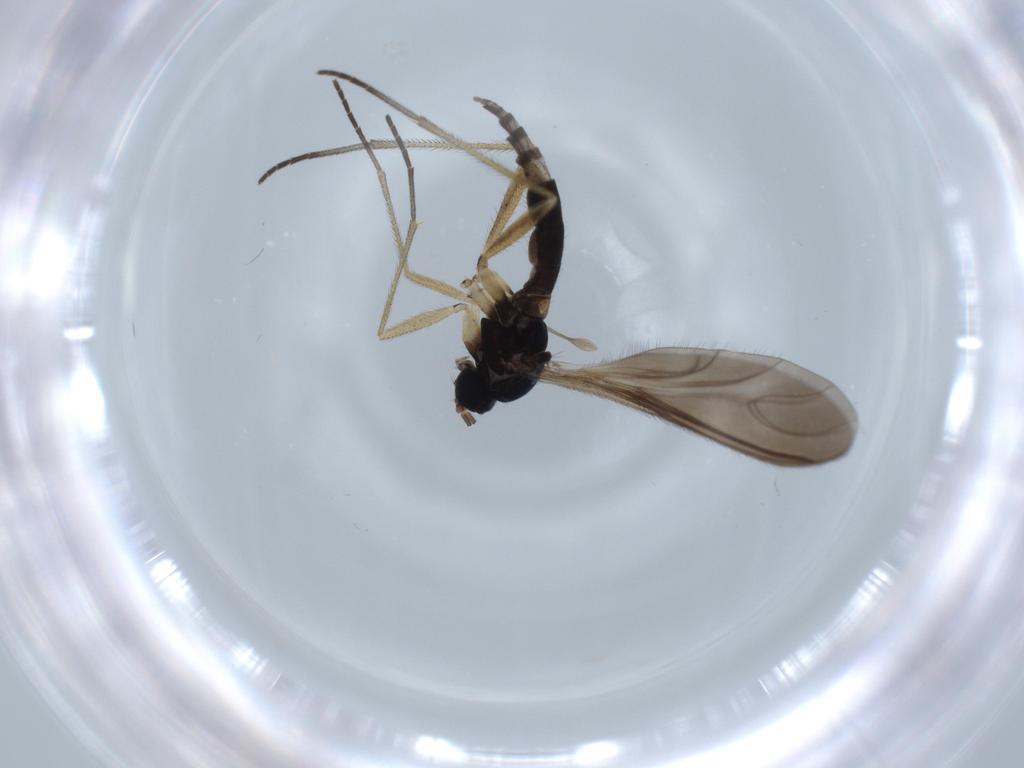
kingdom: Animalia
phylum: Arthropoda
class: Insecta
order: Diptera
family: Sciaridae
